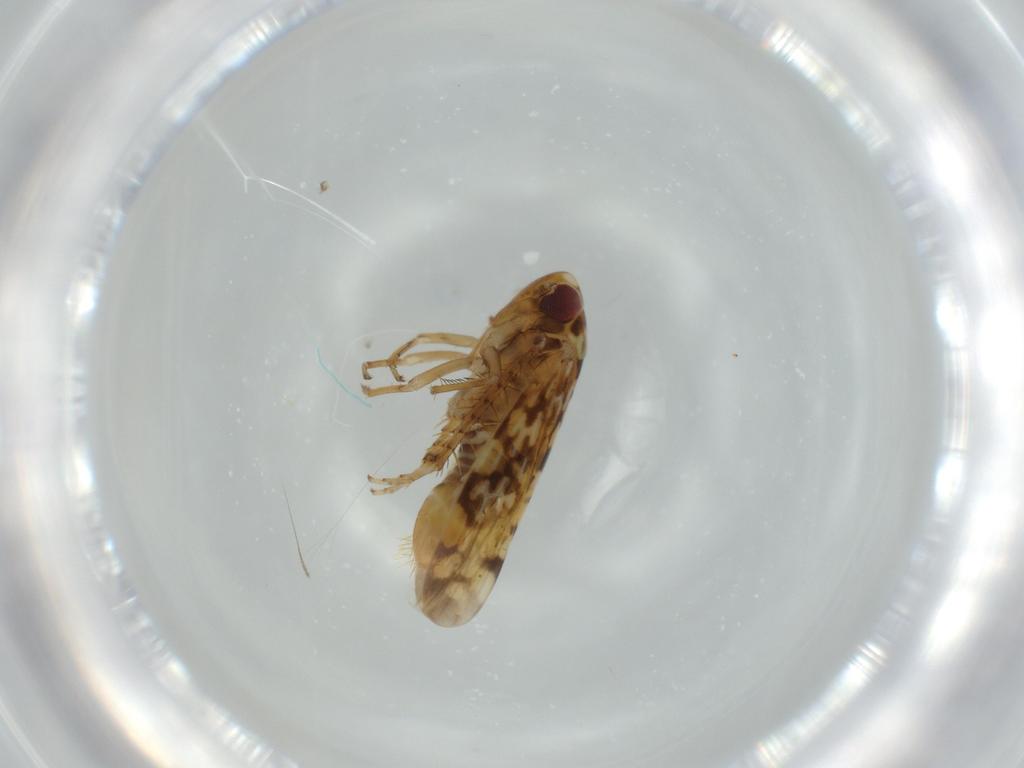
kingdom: Animalia
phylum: Arthropoda
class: Insecta
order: Hemiptera
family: Cicadellidae
